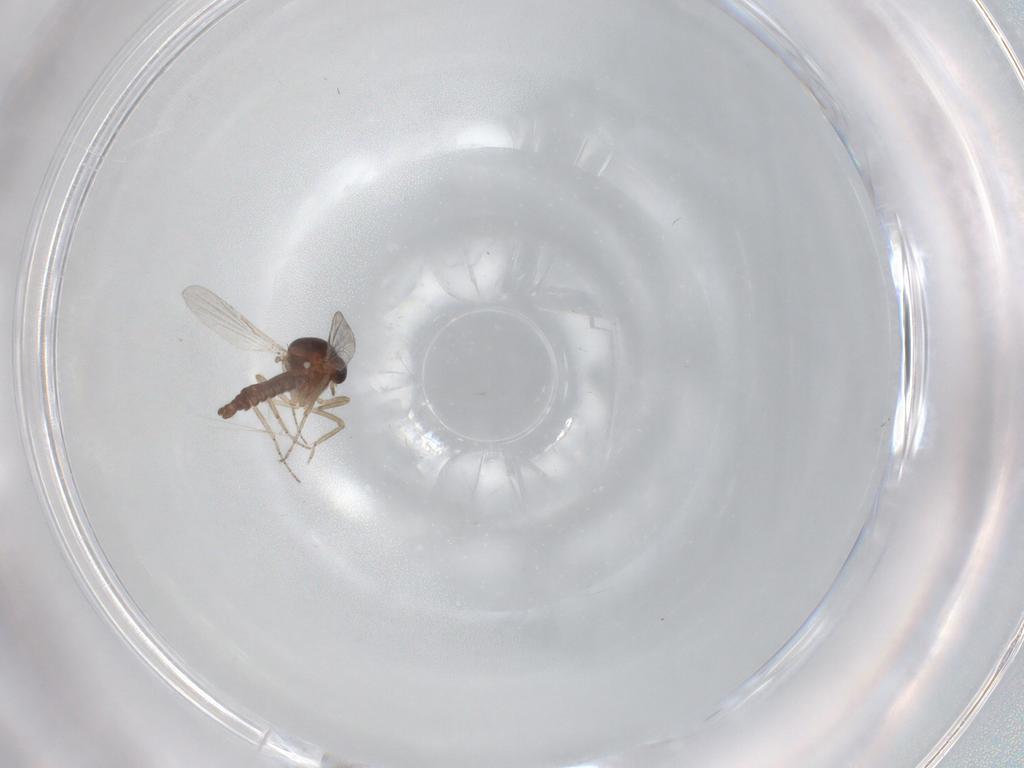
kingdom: Animalia
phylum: Arthropoda
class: Insecta
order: Diptera
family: Ceratopogonidae
